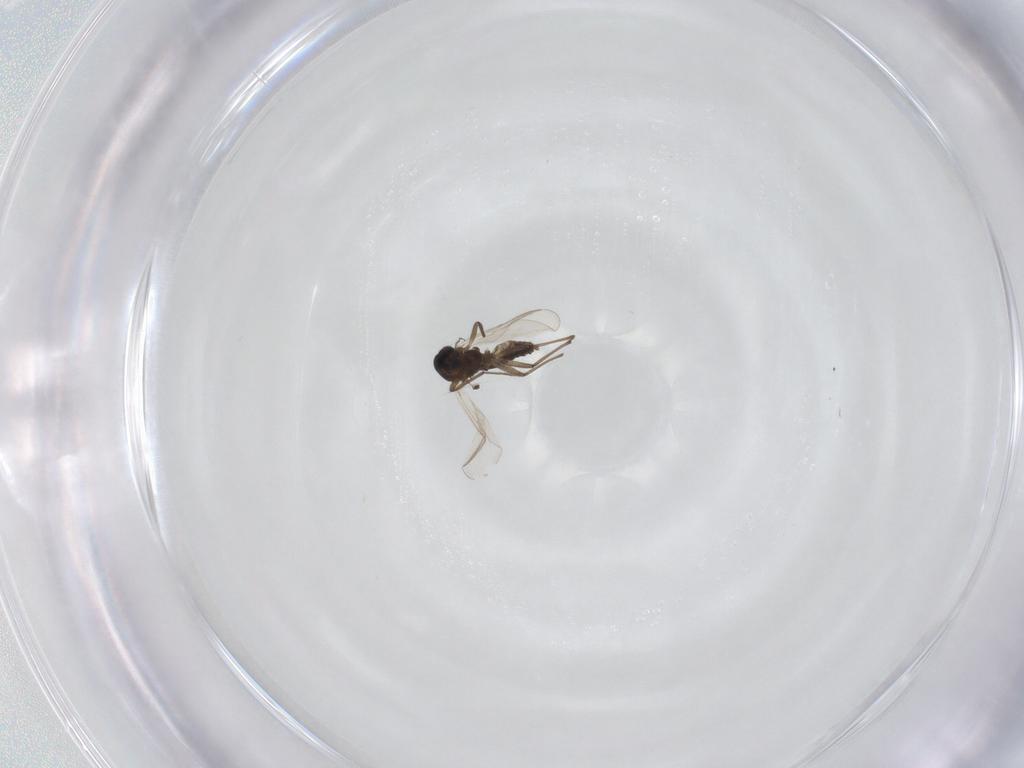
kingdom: Animalia
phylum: Arthropoda
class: Insecta
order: Diptera
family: Chironomidae
